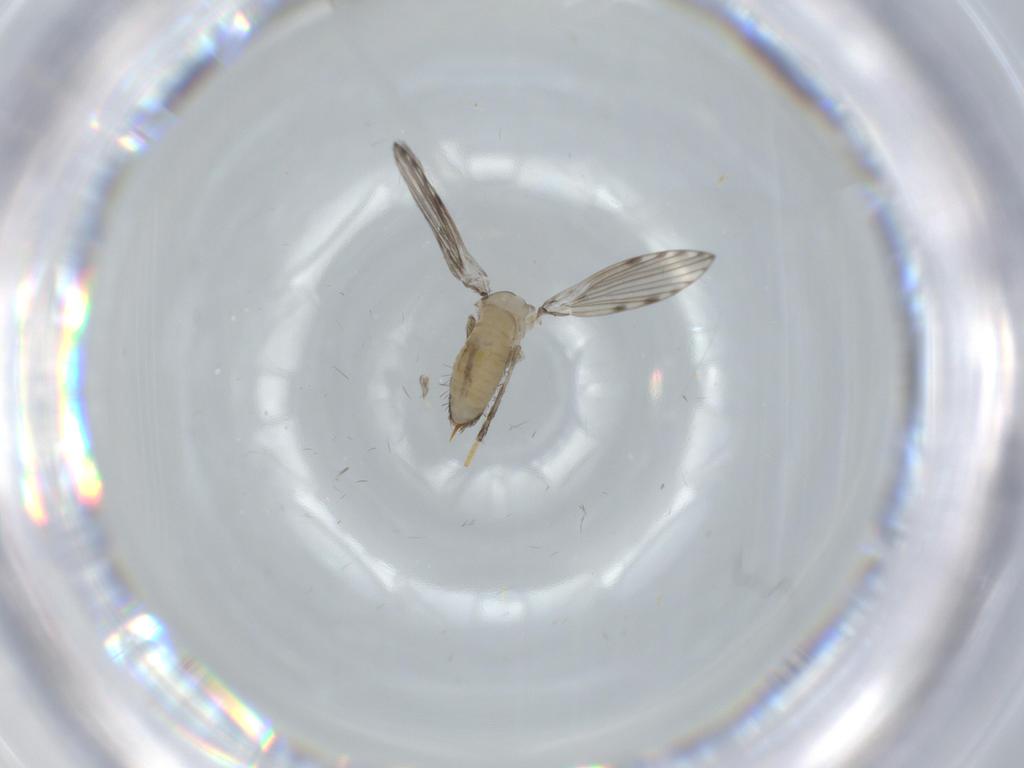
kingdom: Animalia
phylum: Arthropoda
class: Insecta
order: Diptera
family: Psychodidae
